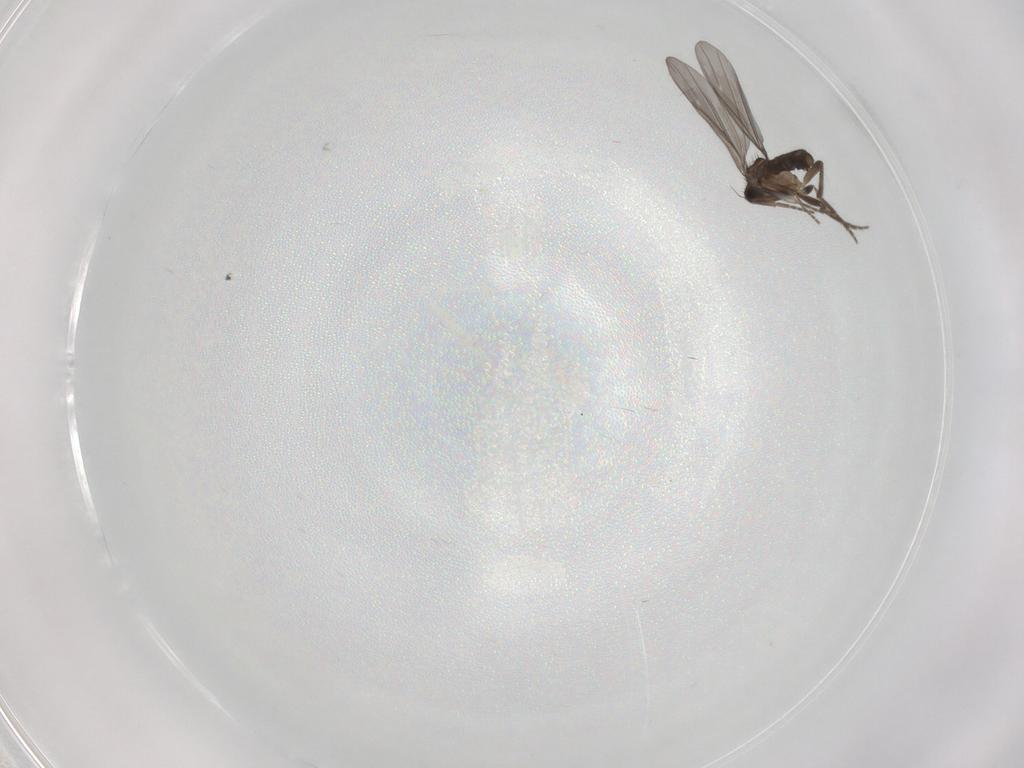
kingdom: Animalia
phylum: Arthropoda
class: Insecta
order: Diptera
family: Phoridae
